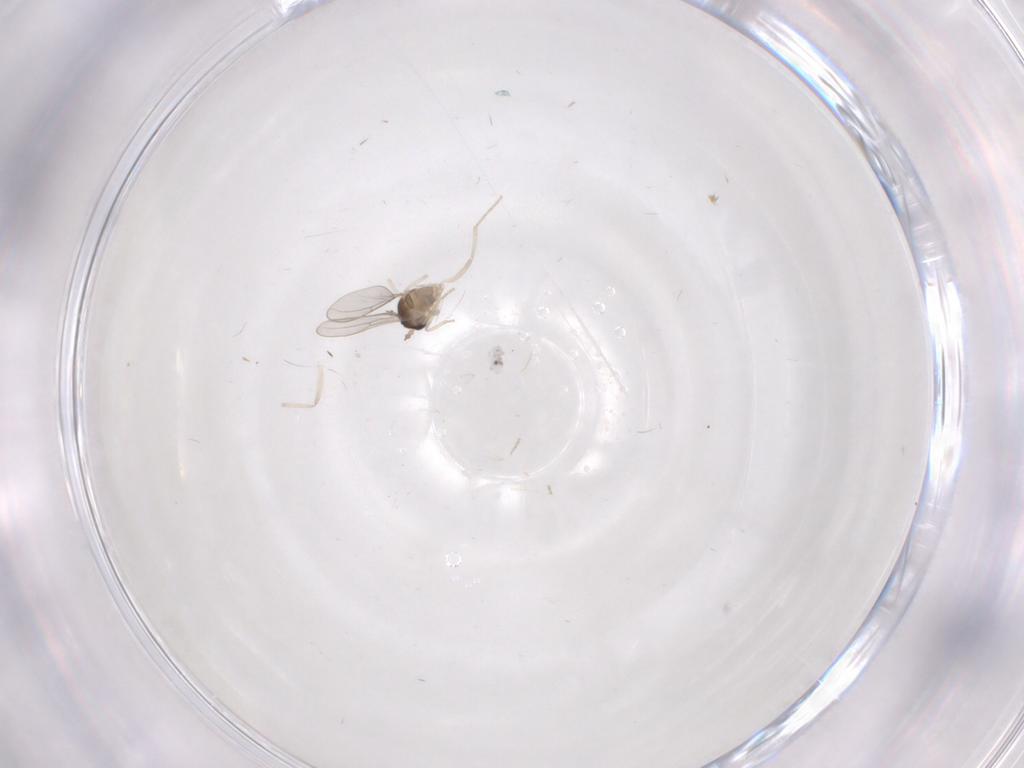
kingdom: Animalia
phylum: Arthropoda
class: Insecta
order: Diptera
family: Cecidomyiidae
